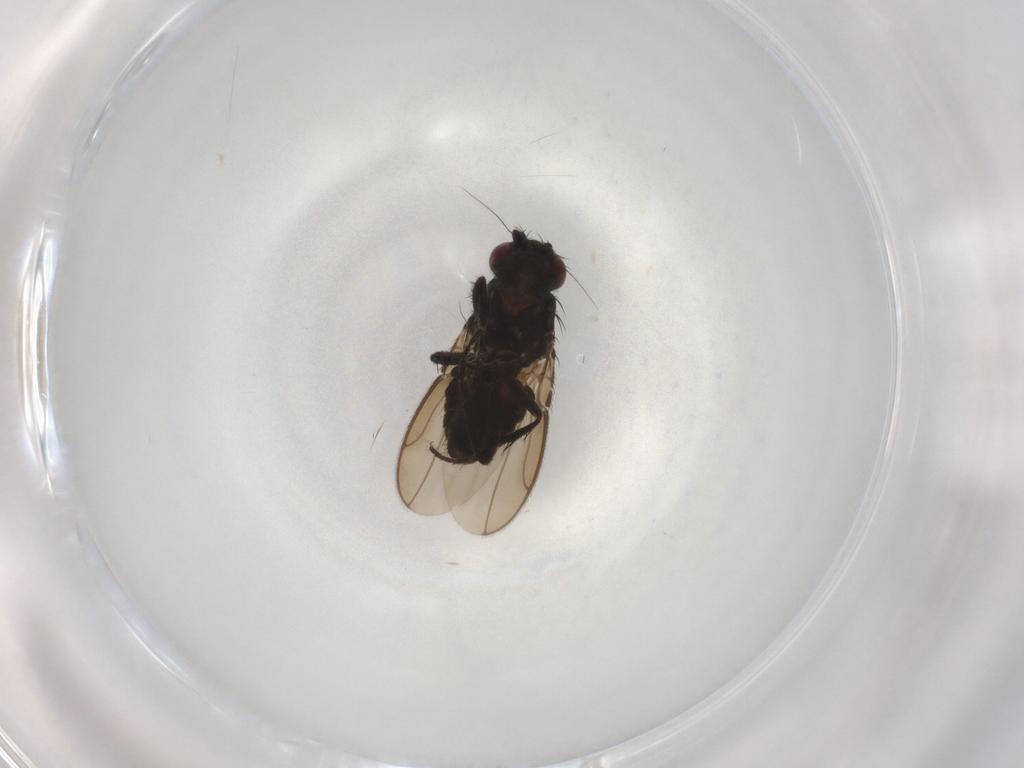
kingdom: Animalia
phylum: Arthropoda
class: Insecta
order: Diptera
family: Sphaeroceridae
